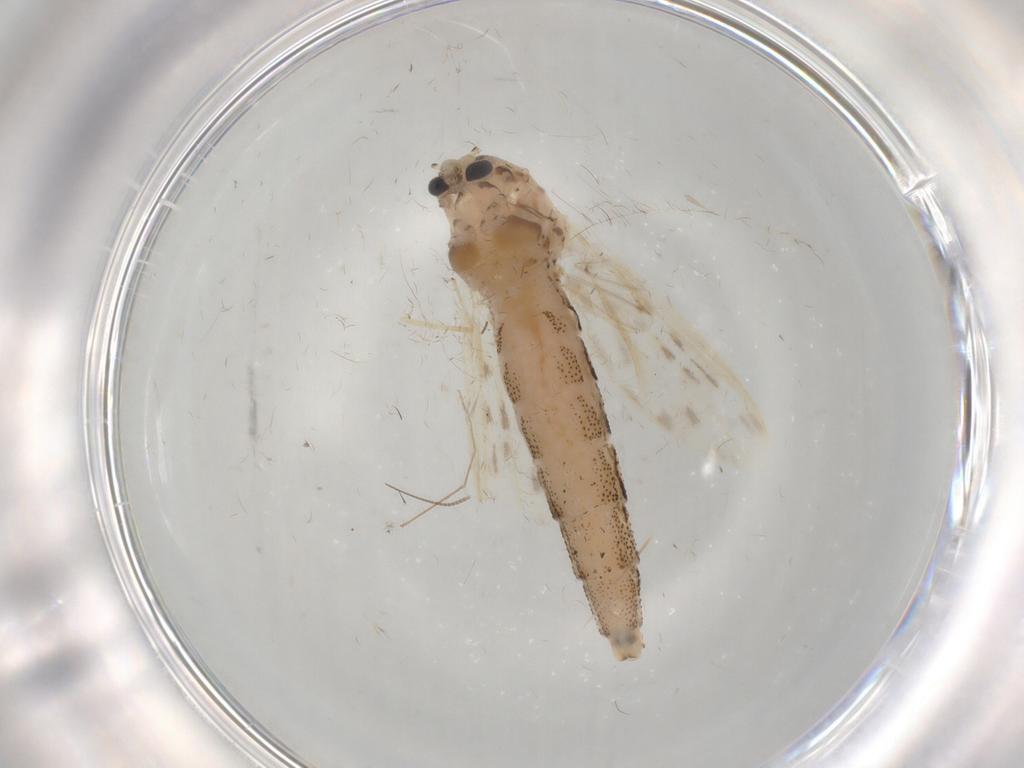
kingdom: Animalia
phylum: Arthropoda
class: Insecta
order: Diptera
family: Chaoboridae
